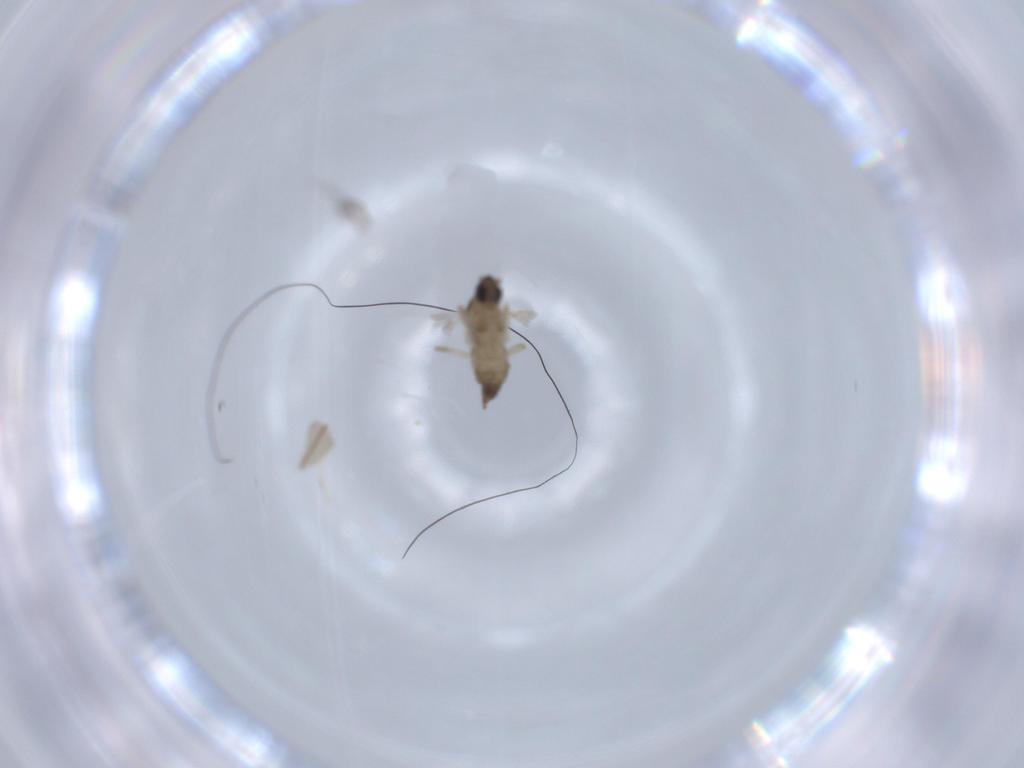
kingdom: Animalia
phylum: Arthropoda
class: Insecta
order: Diptera
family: Cecidomyiidae
